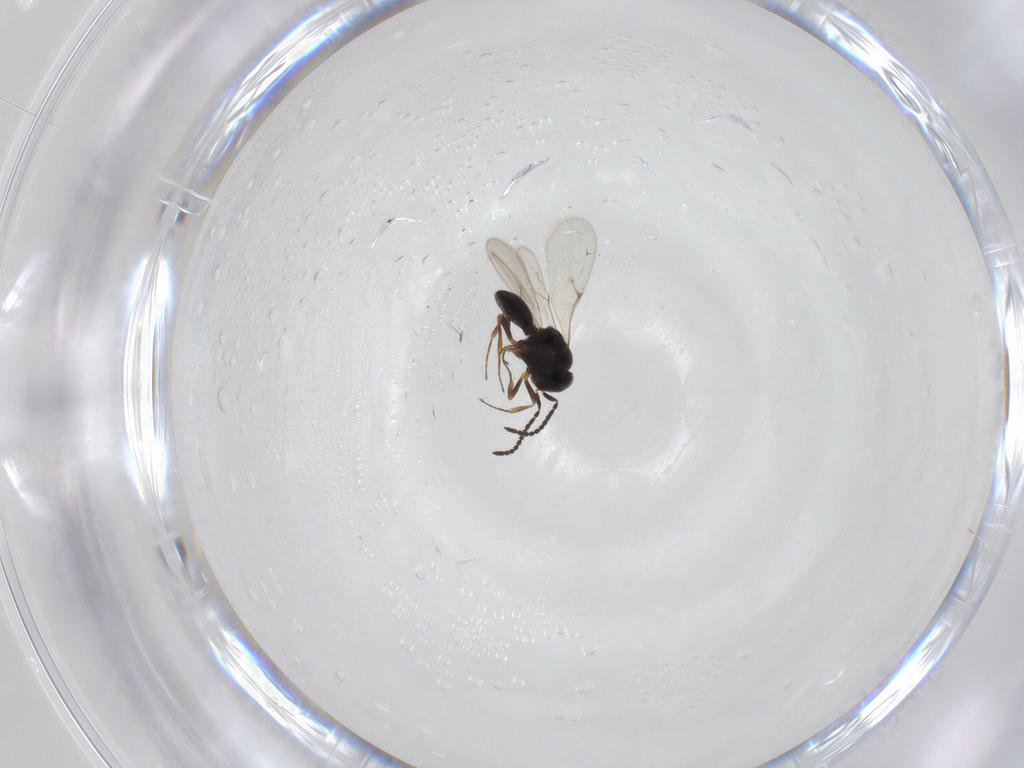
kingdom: Animalia
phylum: Arthropoda
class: Insecta
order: Hymenoptera
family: Scelionidae
